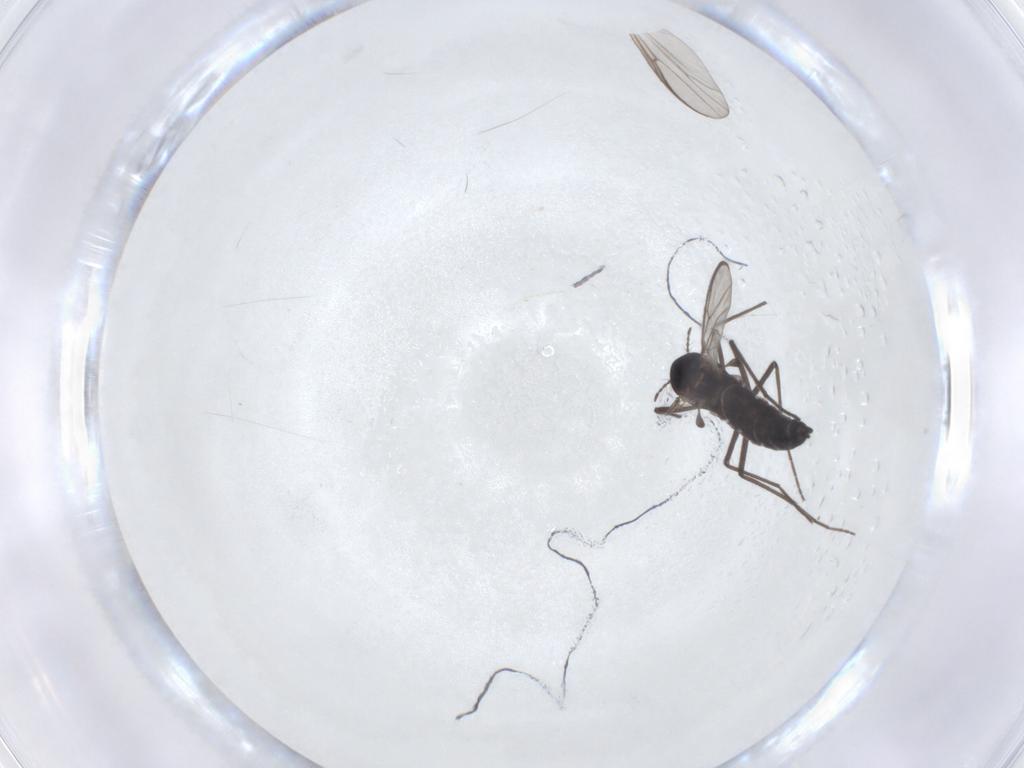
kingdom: Animalia
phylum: Arthropoda
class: Insecta
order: Diptera
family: Chironomidae
